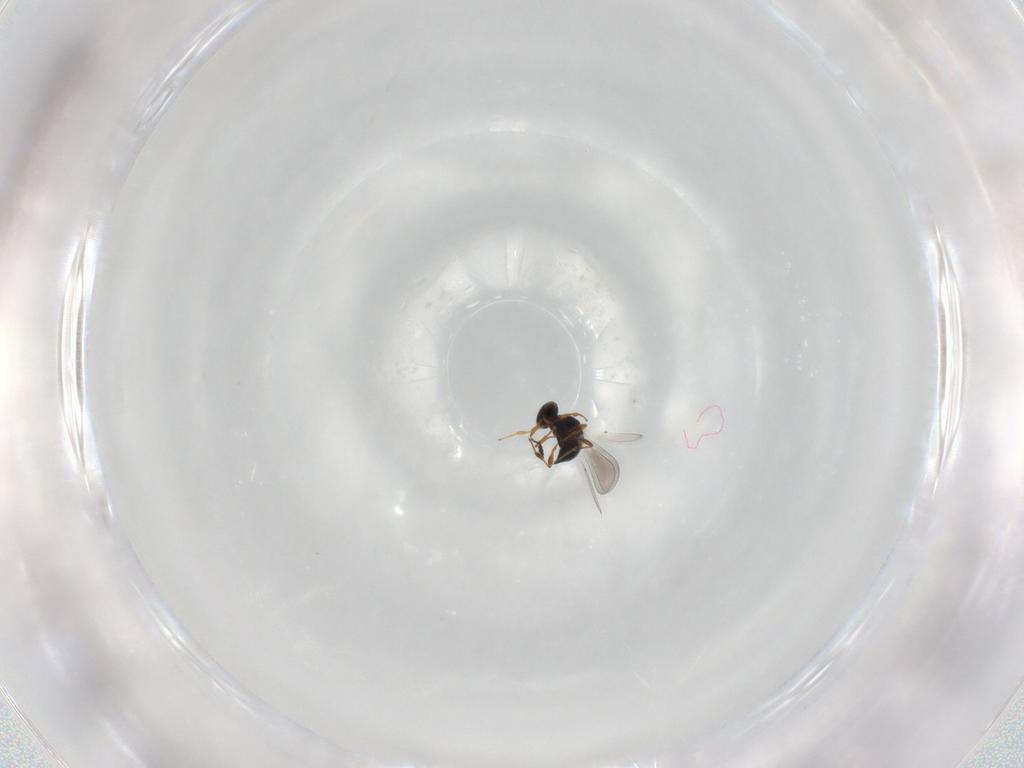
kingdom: Animalia
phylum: Arthropoda
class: Insecta
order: Hymenoptera
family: Platygastridae
